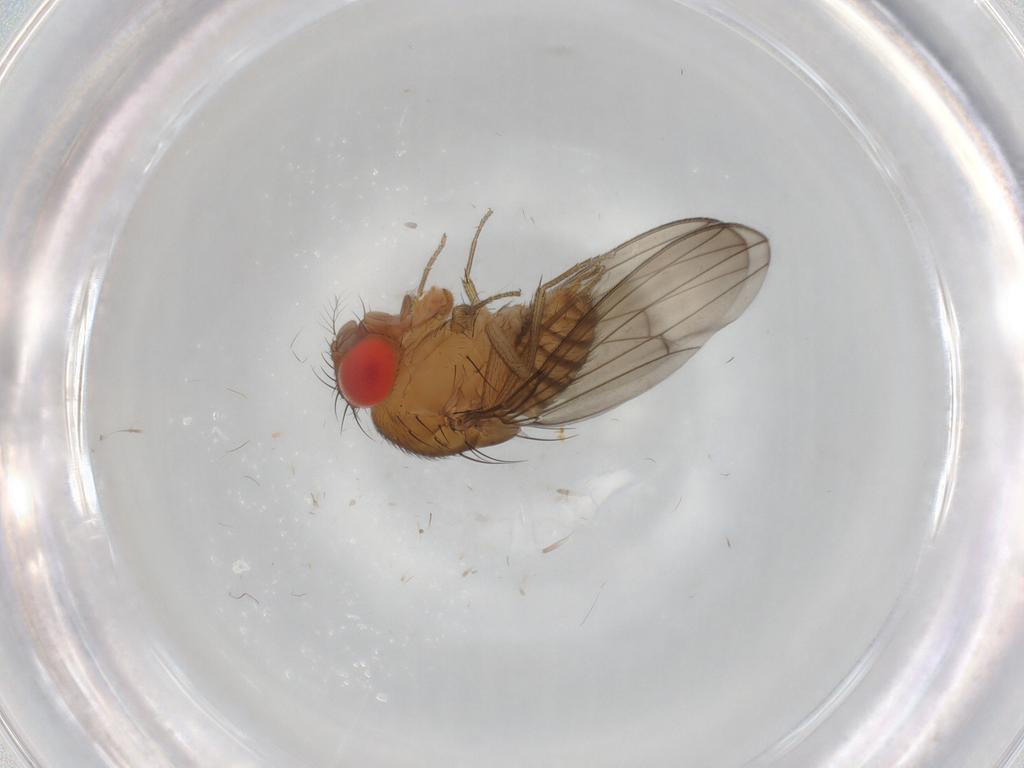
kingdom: Animalia
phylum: Arthropoda
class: Insecta
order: Diptera
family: Drosophilidae
